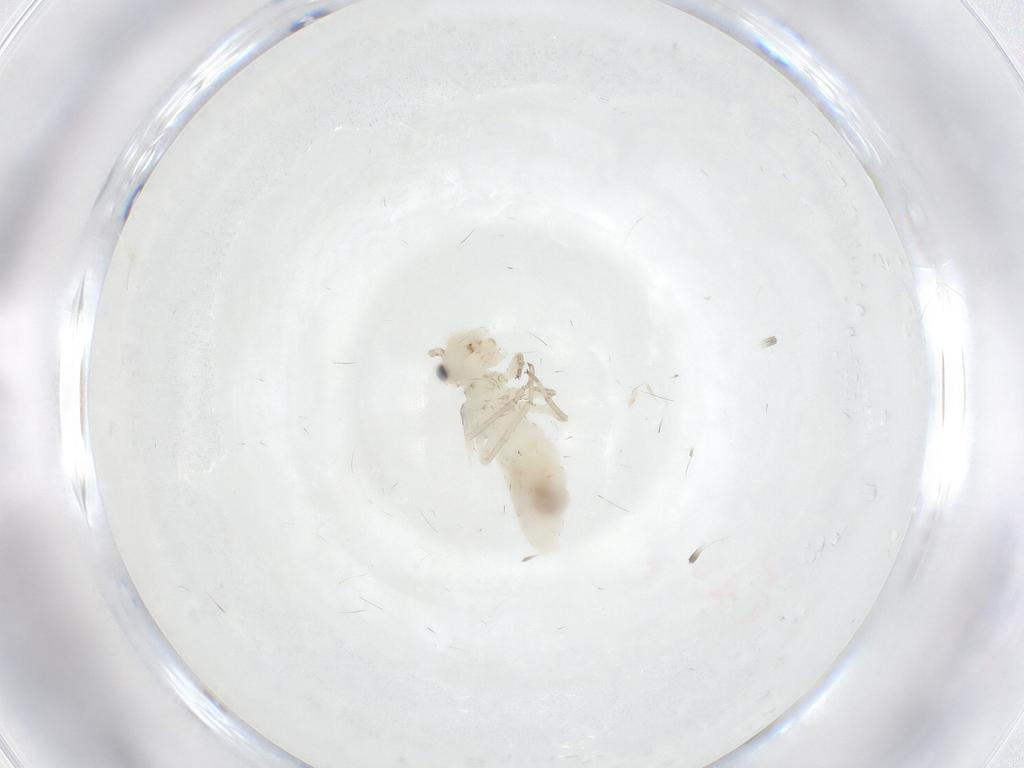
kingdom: Animalia
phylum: Arthropoda
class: Insecta
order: Psocodea
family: Caeciliusidae
